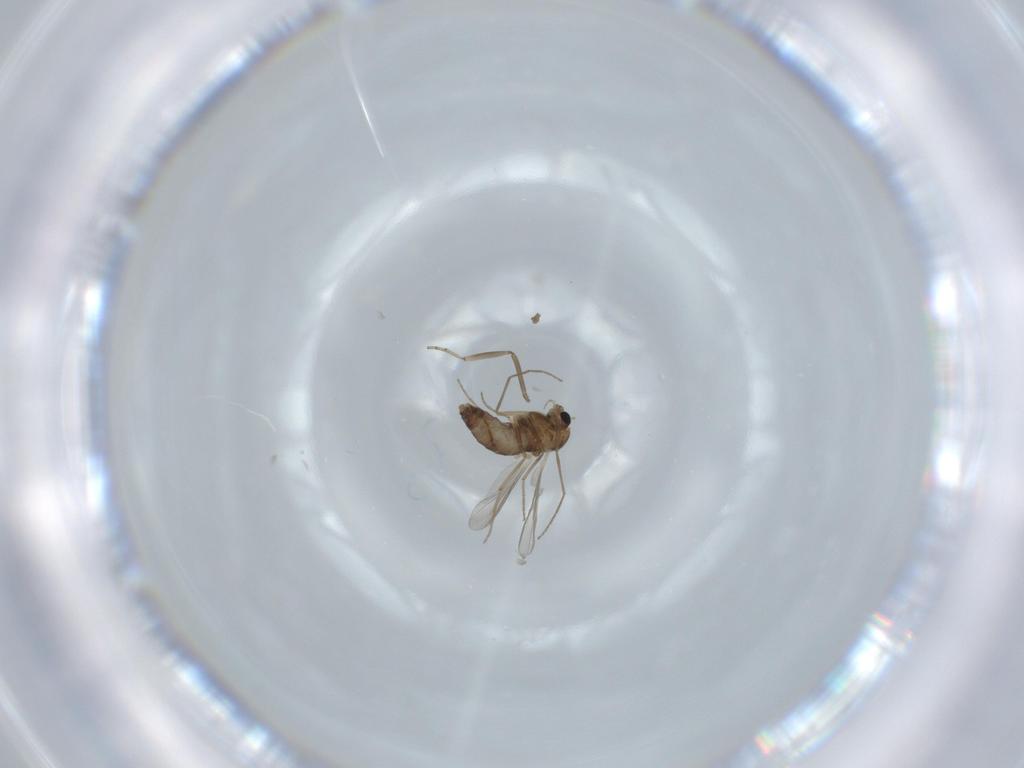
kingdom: Animalia
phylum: Arthropoda
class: Insecta
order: Diptera
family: Chironomidae
